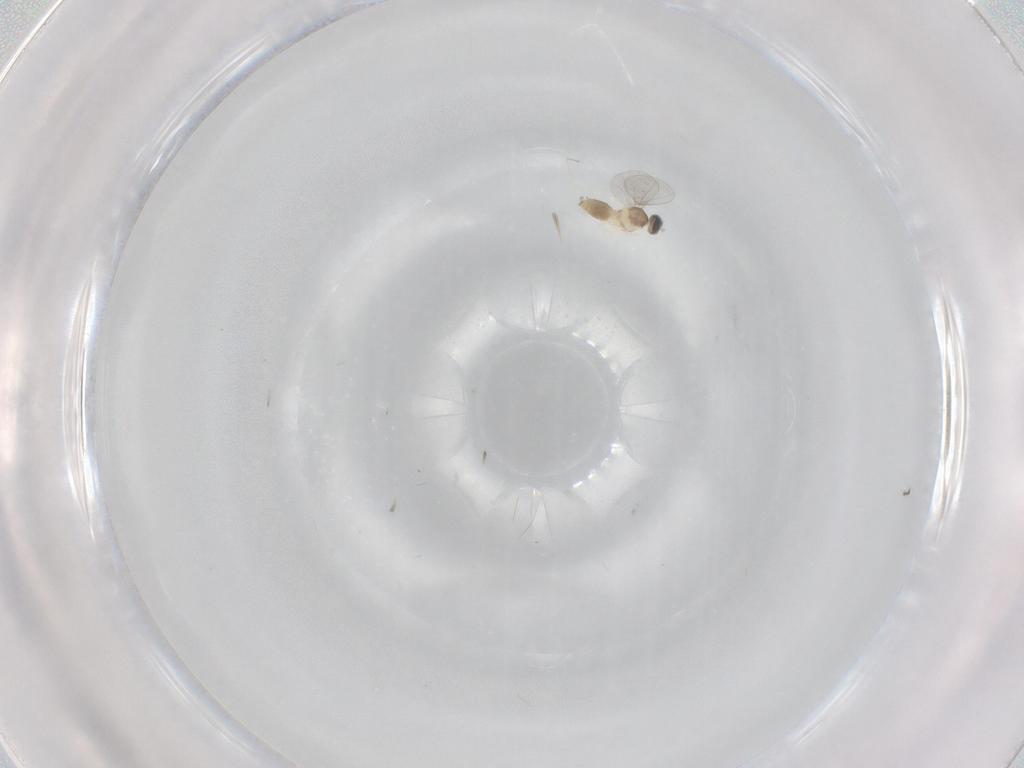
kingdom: Animalia
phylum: Arthropoda
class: Insecta
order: Diptera
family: Cecidomyiidae
